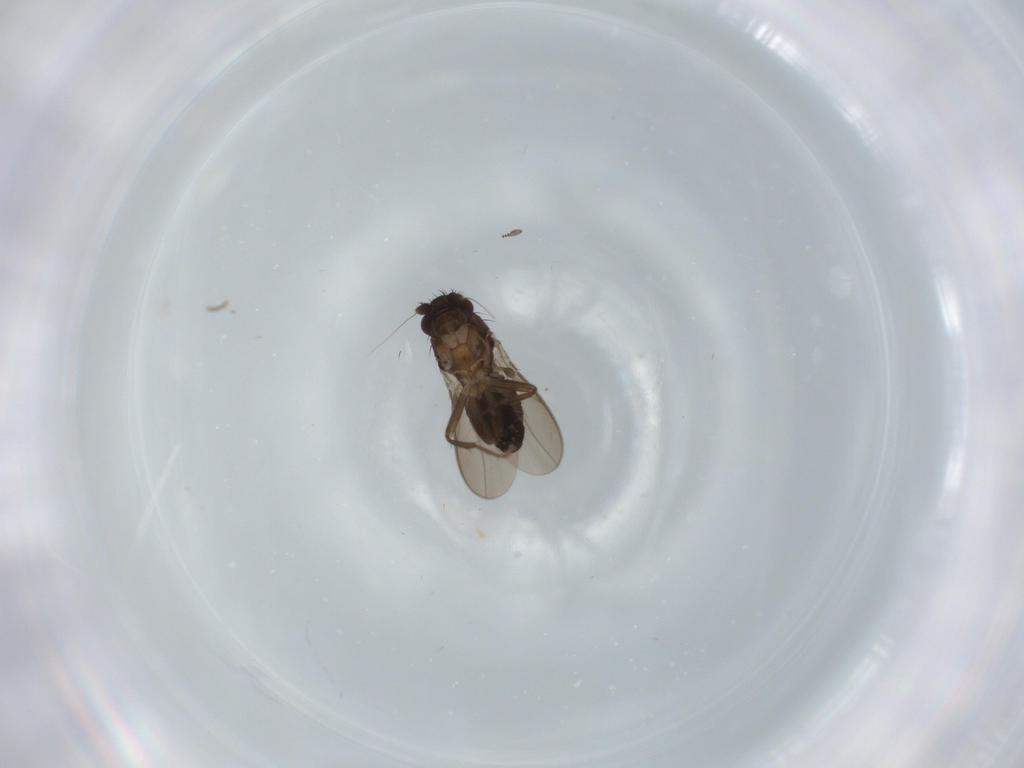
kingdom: Animalia
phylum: Arthropoda
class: Insecta
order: Diptera
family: Sphaeroceridae
